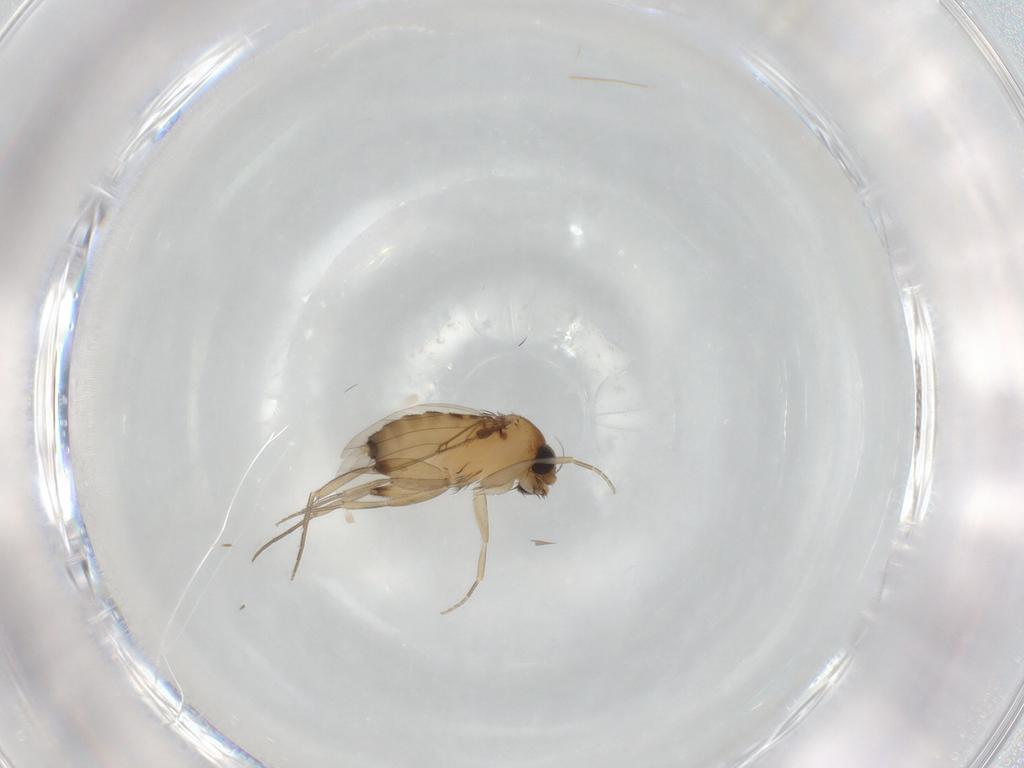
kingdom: Animalia
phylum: Arthropoda
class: Insecta
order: Diptera
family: Phoridae
